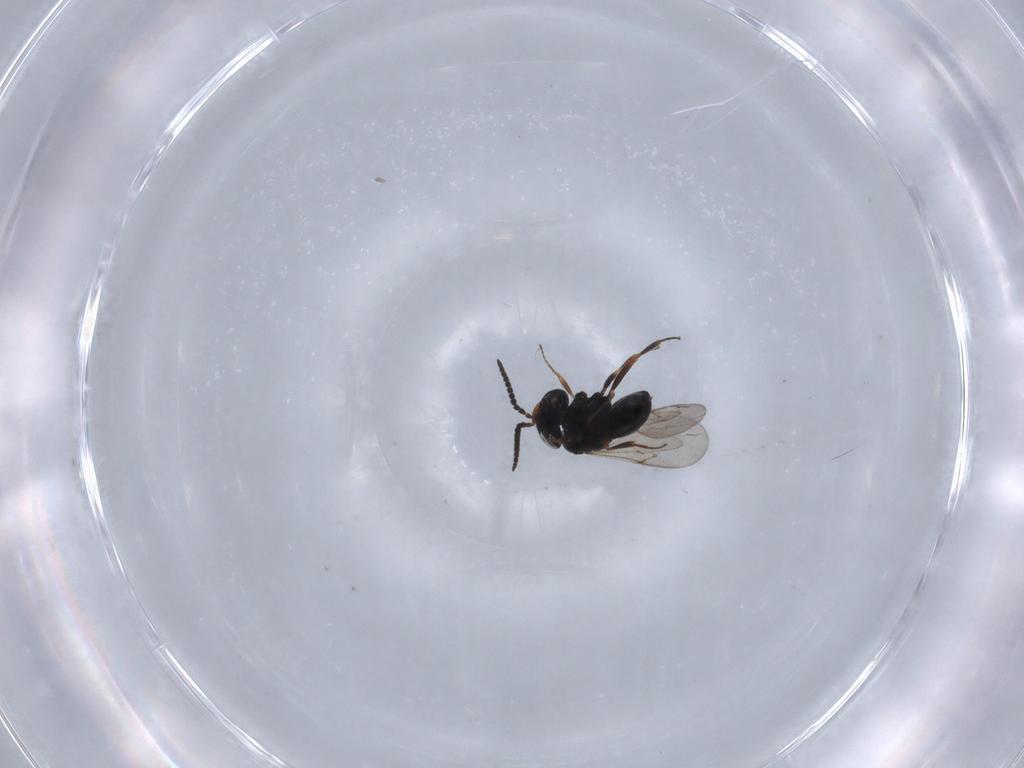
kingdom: Animalia
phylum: Arthropoda
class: Insecta
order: Hymenoptera
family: Scelionidae
